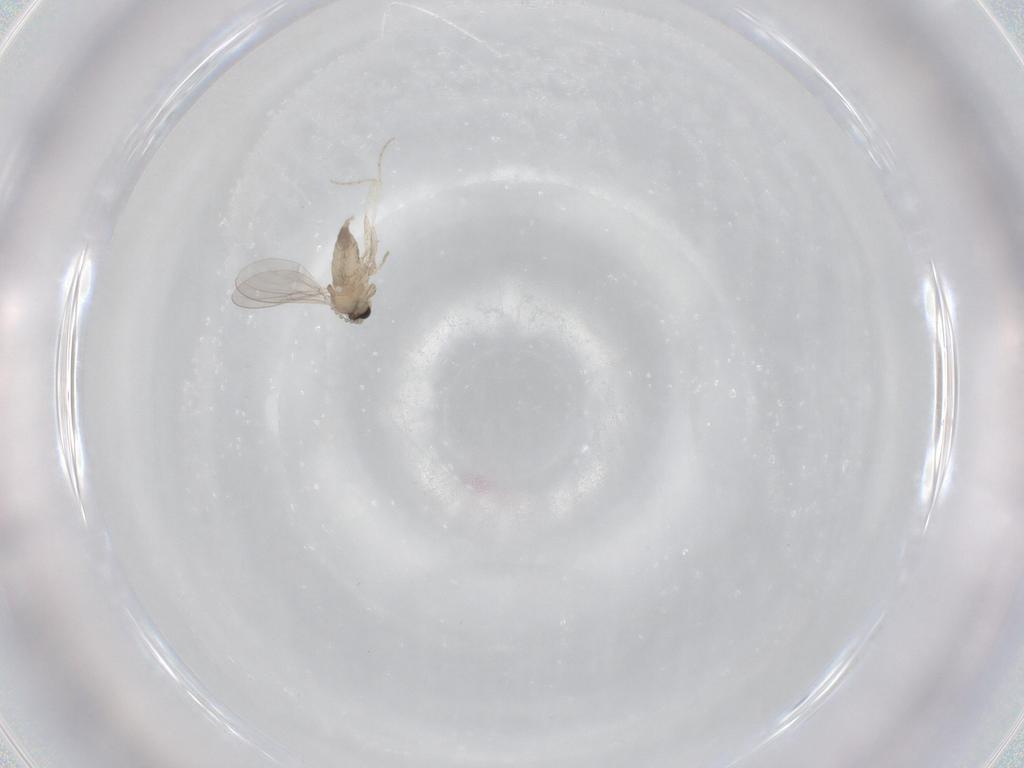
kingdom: Animalia
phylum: Arthropoda
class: Insecta
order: Diptera
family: Cecidomyiidae
